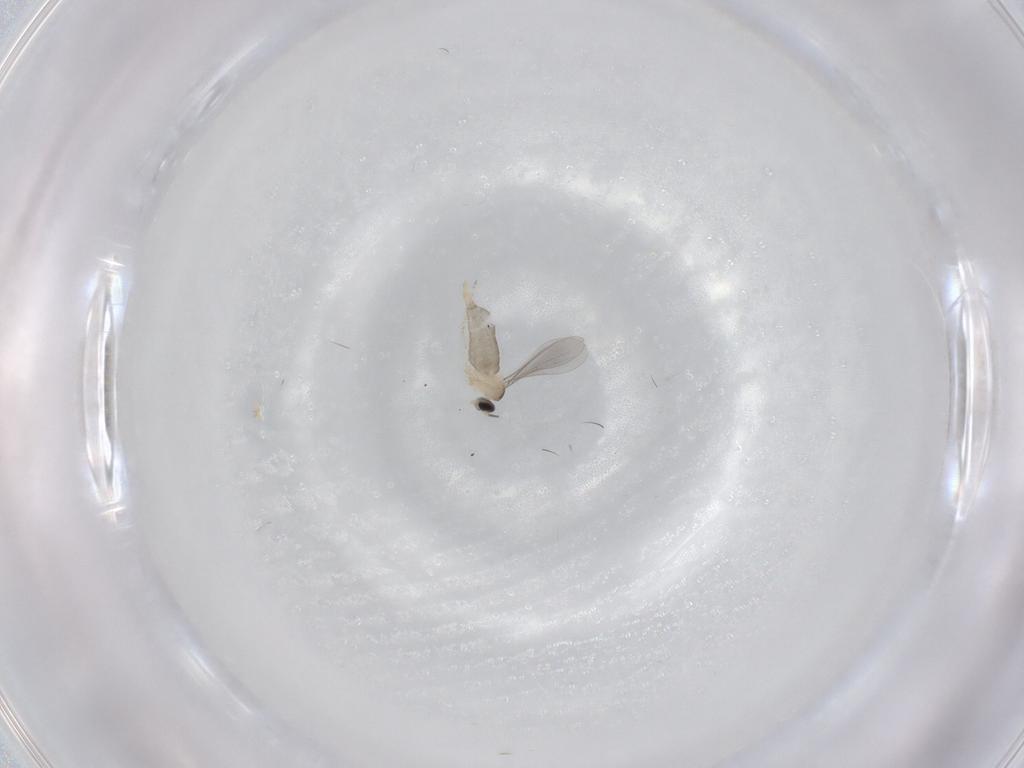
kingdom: Animalia
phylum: Arthropoda
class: Insecta
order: Diptera
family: Cecidomyiidae
